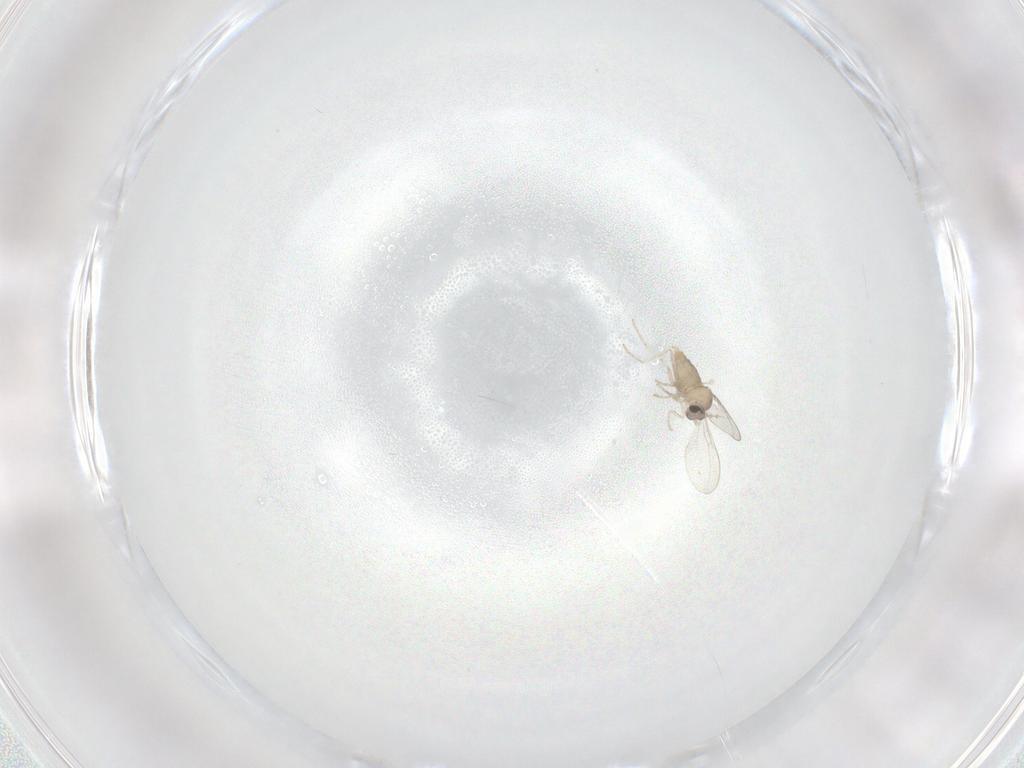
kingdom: Animalia
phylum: Arthropoda
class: Insecta
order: Diptera
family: Cecidomyiidae
